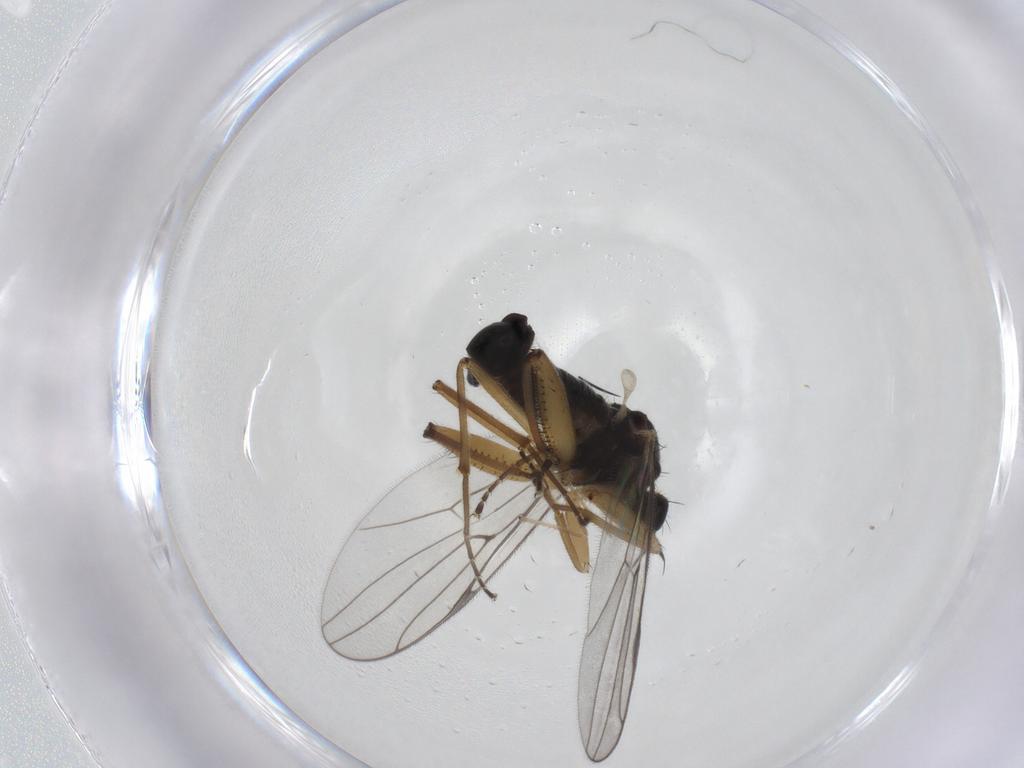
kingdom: Animalia
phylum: Arthropoda
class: Insecta
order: Diptera
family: Hybotidae
